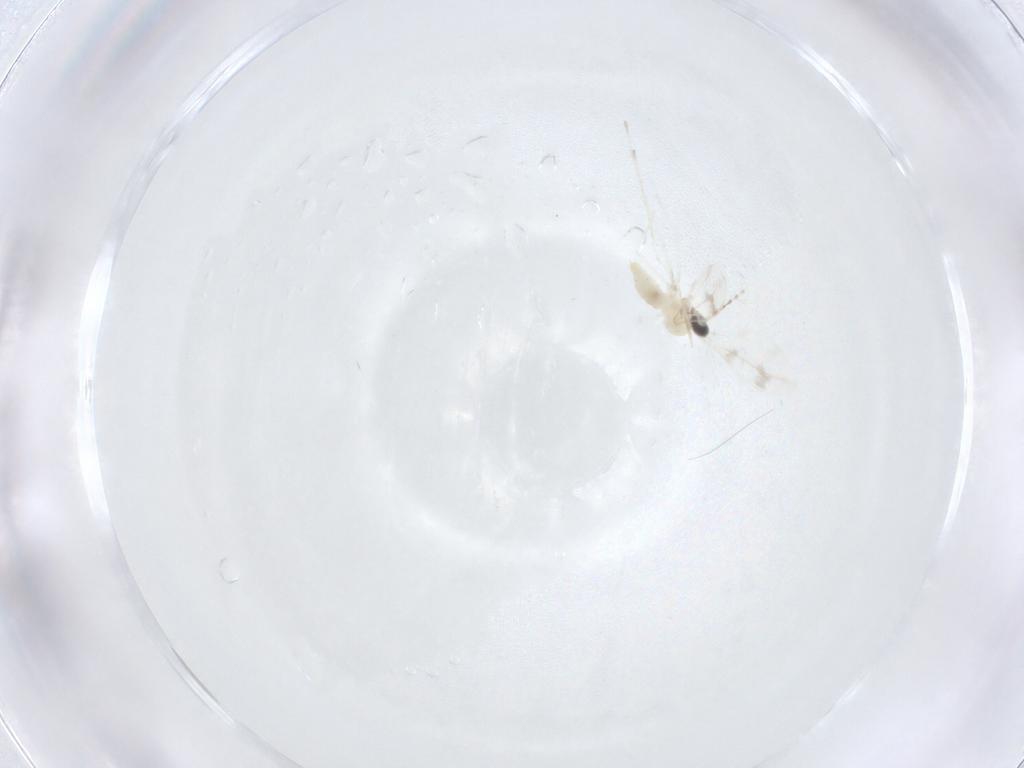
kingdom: Animalia
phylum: Arthropoda
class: Insecta
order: Diptera
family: Cecidomyiidae
